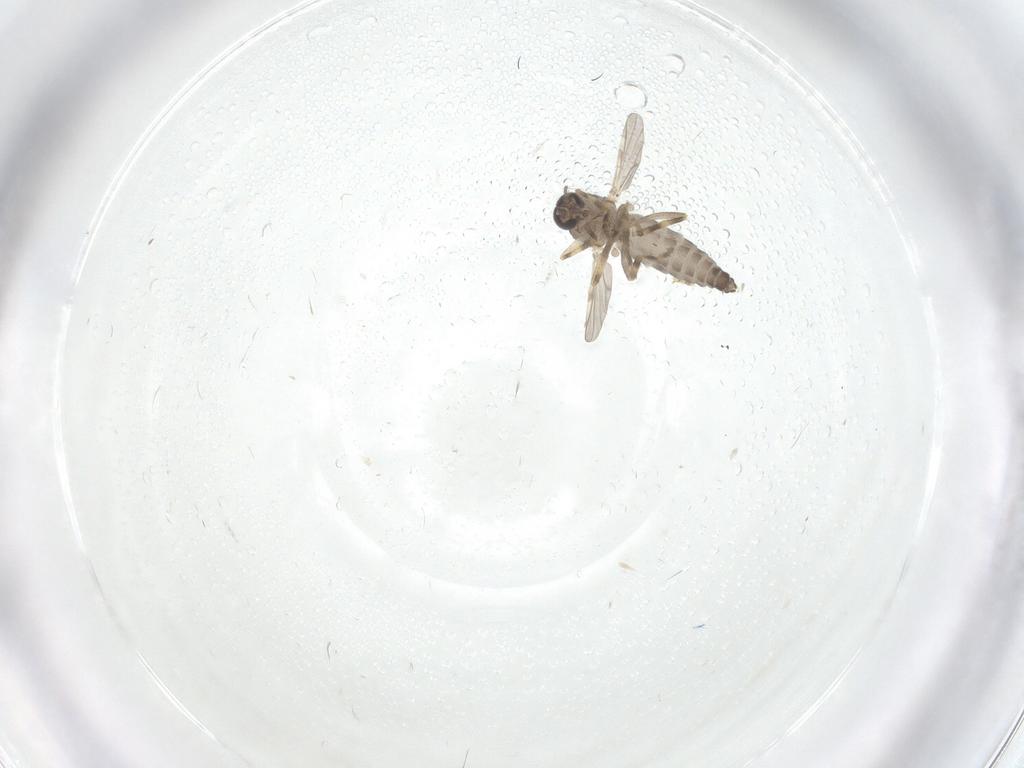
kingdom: Animalia
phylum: Arthropoda
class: Insecta
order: Diptera
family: Ceratopogonidae
